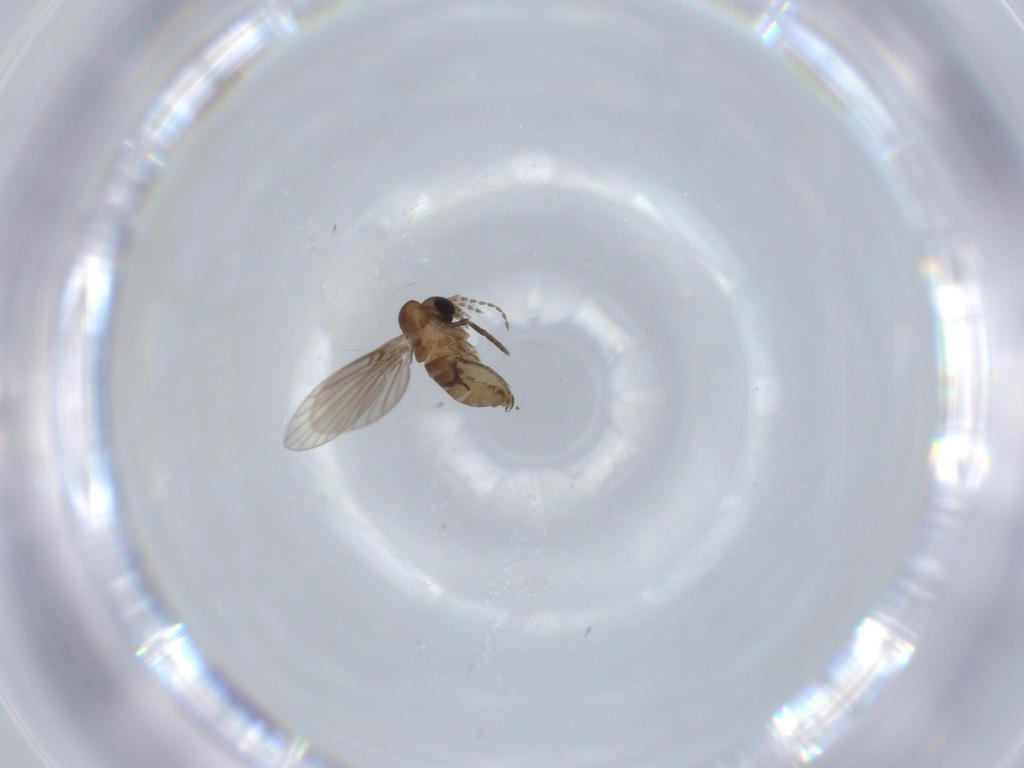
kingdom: Animalia
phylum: Arthropoda
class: Insecta
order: Diptera
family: Psychodidae
